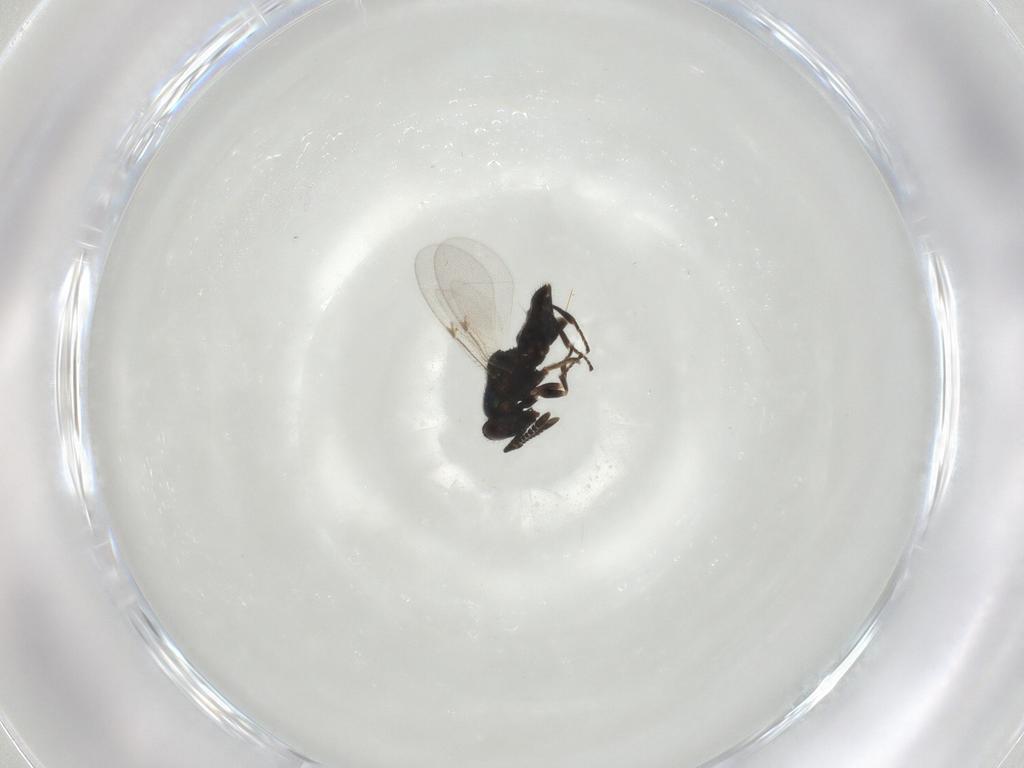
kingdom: Animalia
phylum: Arthropoda
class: Insecta
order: Hymenoptera
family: Encyrtidae
